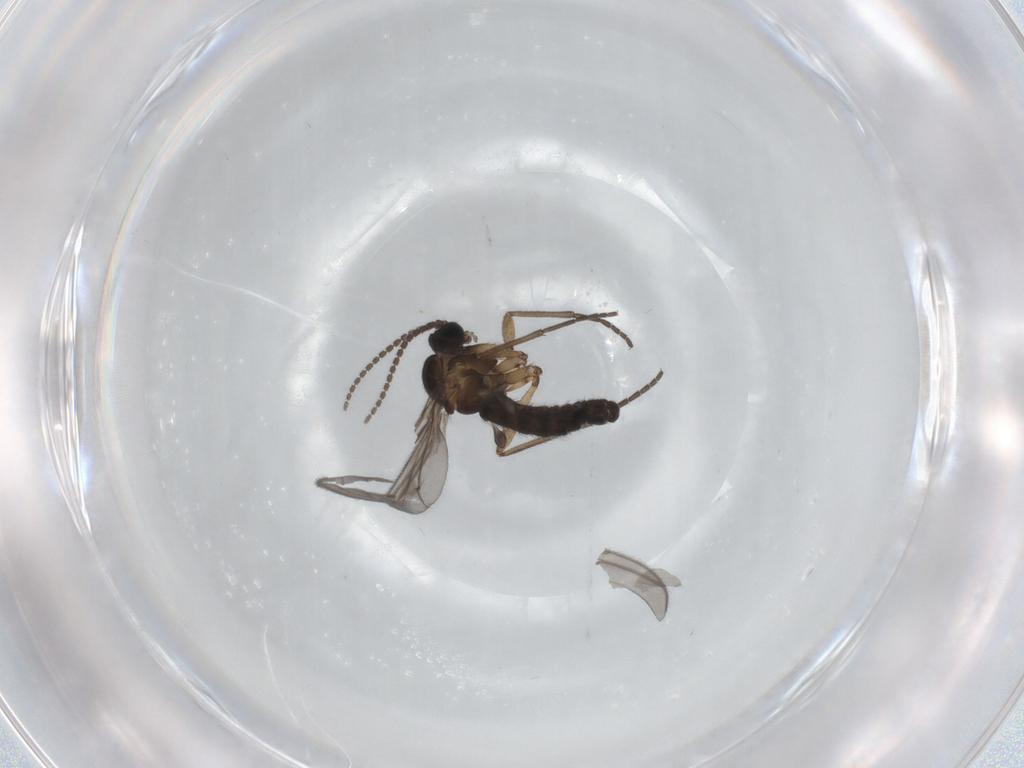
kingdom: Animalia
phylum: Arthropoda
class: Insecta
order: Diptera
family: Sciaridae
